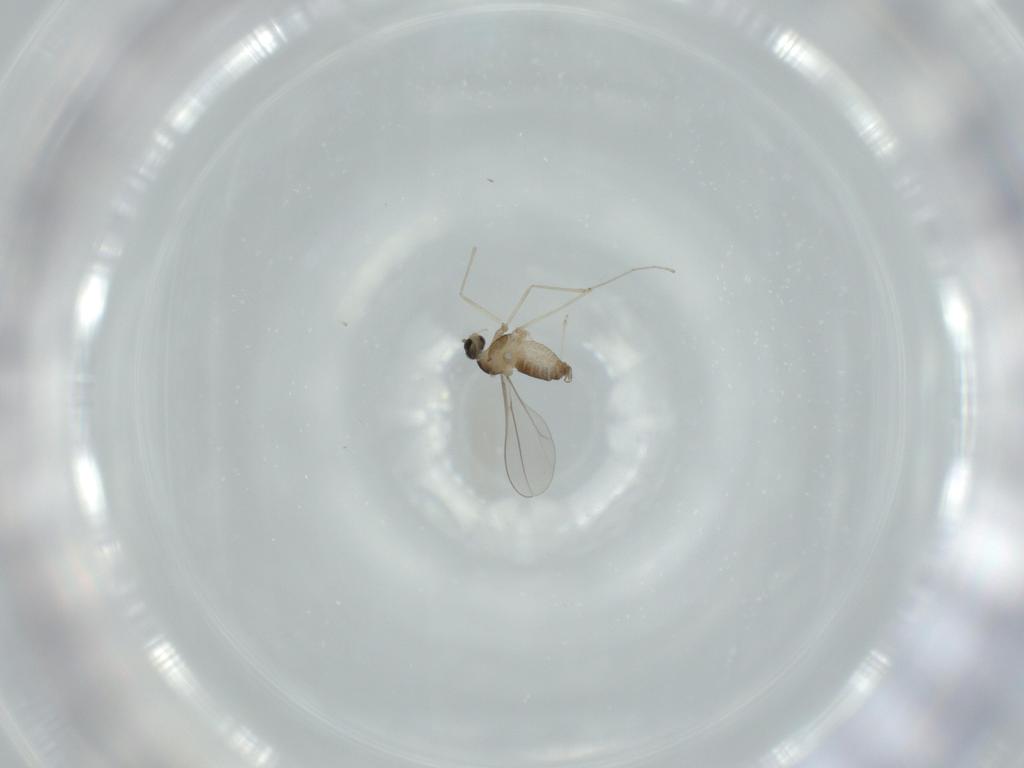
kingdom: Animalia
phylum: Arthropoda
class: Insecta
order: Diptera
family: Cecidomyiidae
